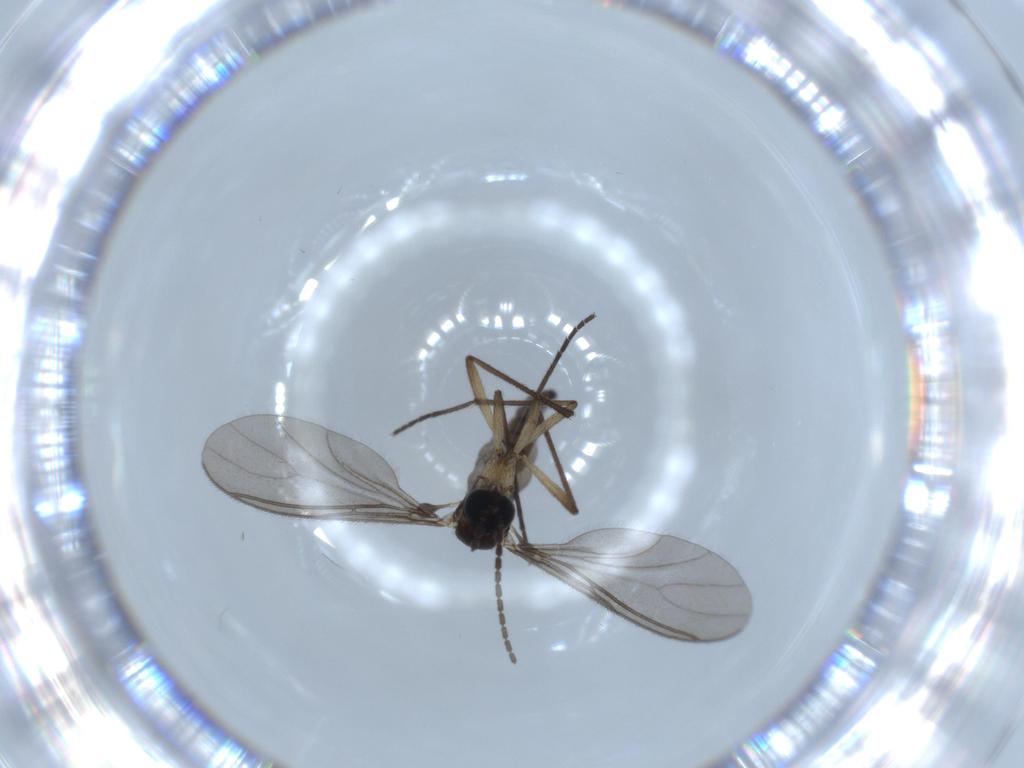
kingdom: Animalia
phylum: Arthropoda
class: Insecta
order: Diptera
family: Sciaridae
